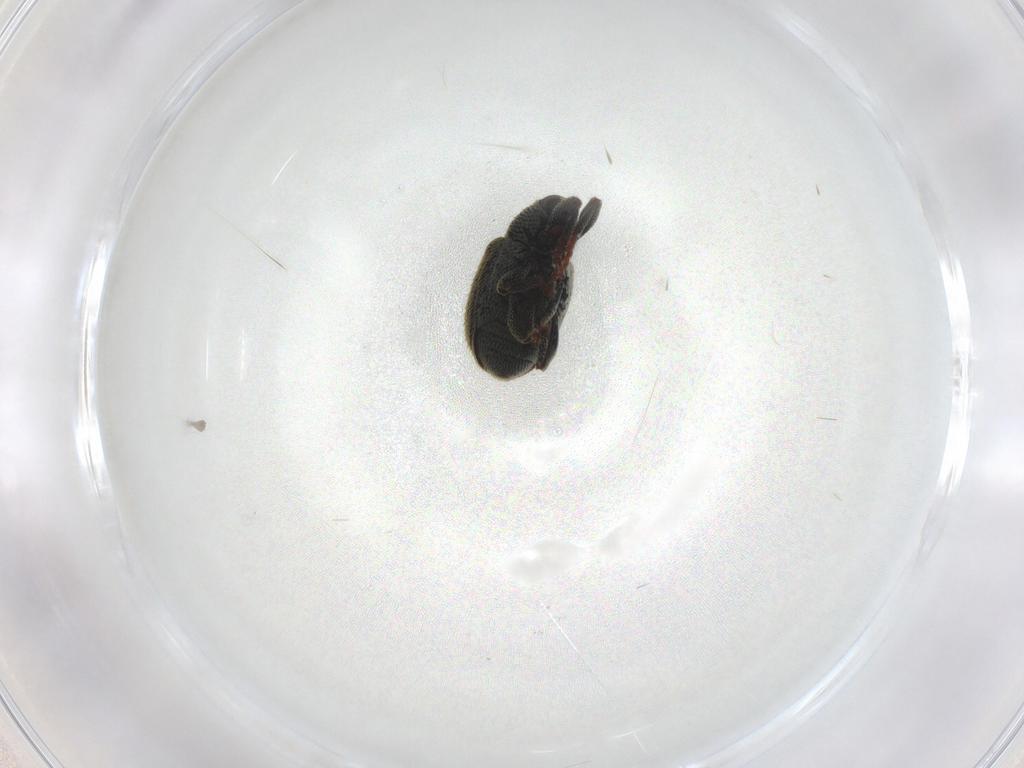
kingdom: Animalia
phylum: Arthropoda
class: Insecta
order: Coleoptera
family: Curculionidae
